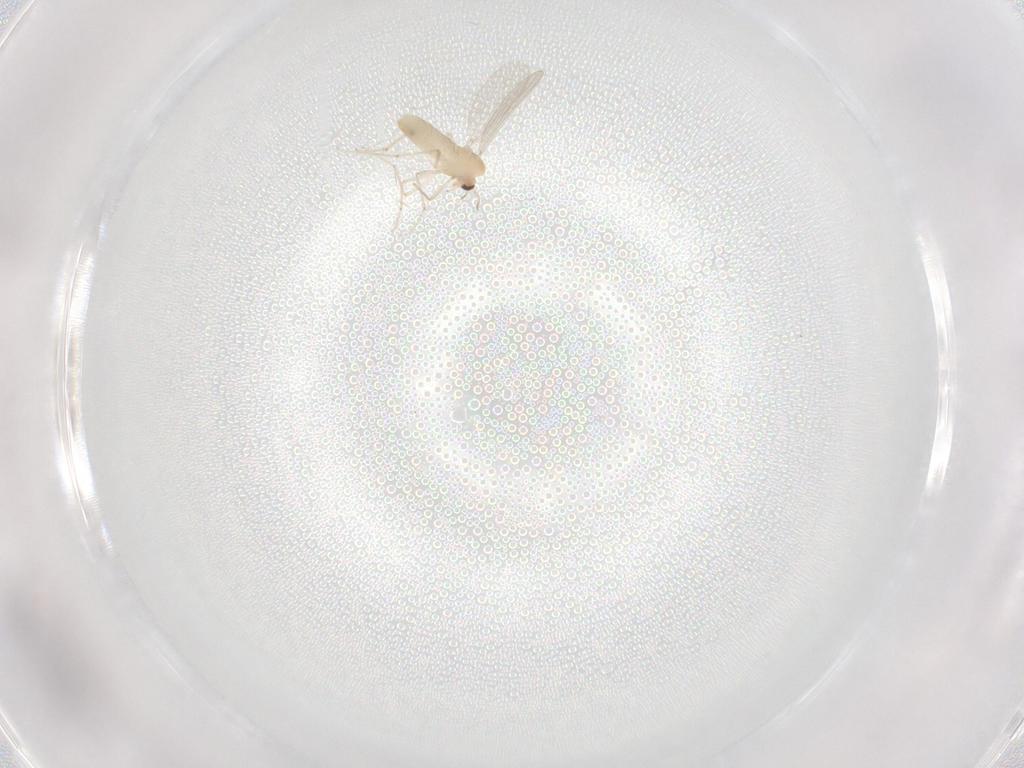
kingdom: Animalia
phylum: Arthropoda
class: Insecta
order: Diptera
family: Chironomidae
